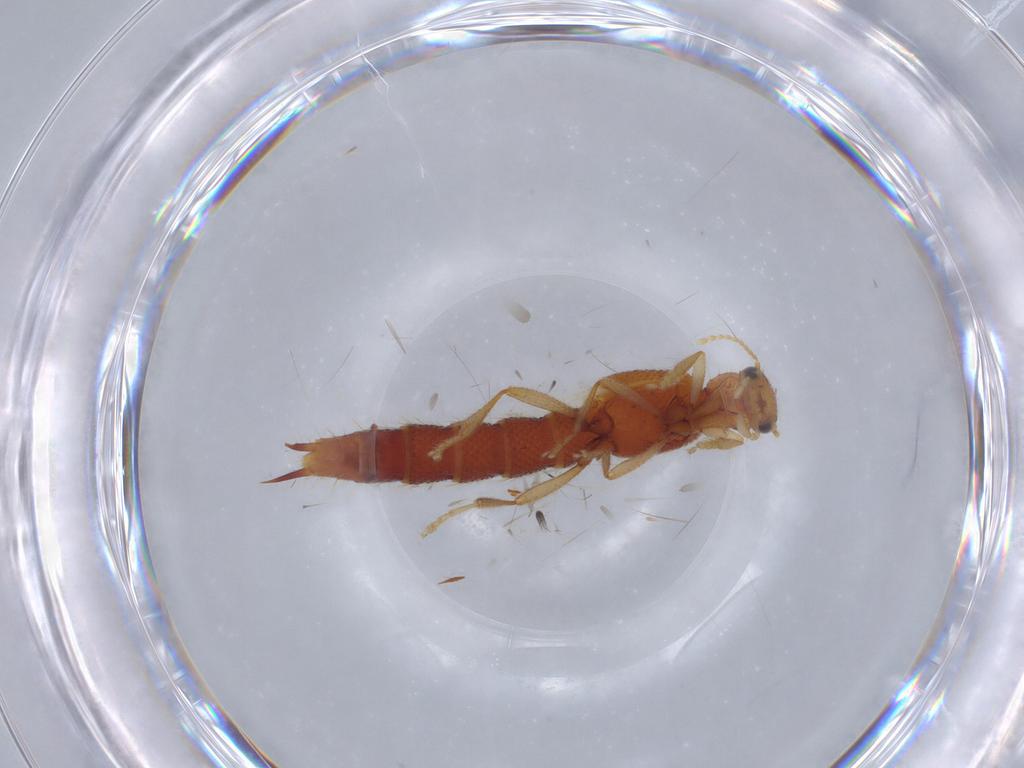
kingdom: Animalia
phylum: Arthropoda
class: Insecta
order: Coleoptera
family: Staphylinidae
